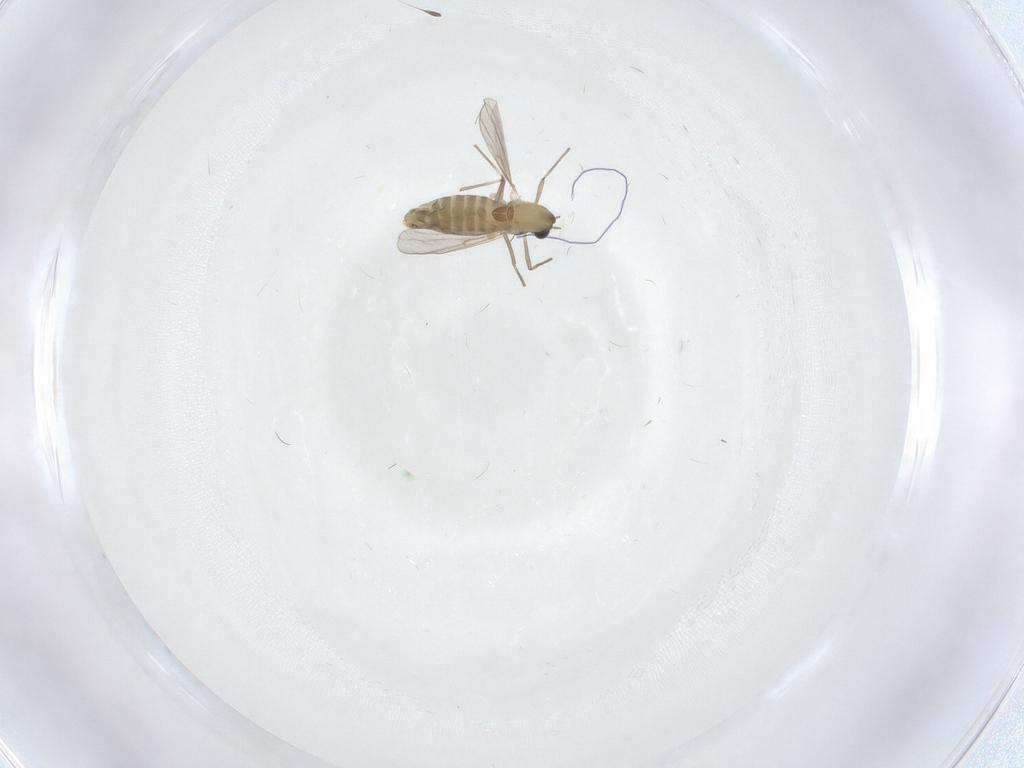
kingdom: Animalia
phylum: Arthropoda
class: Insecta
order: Diptera
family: Chironomidae
